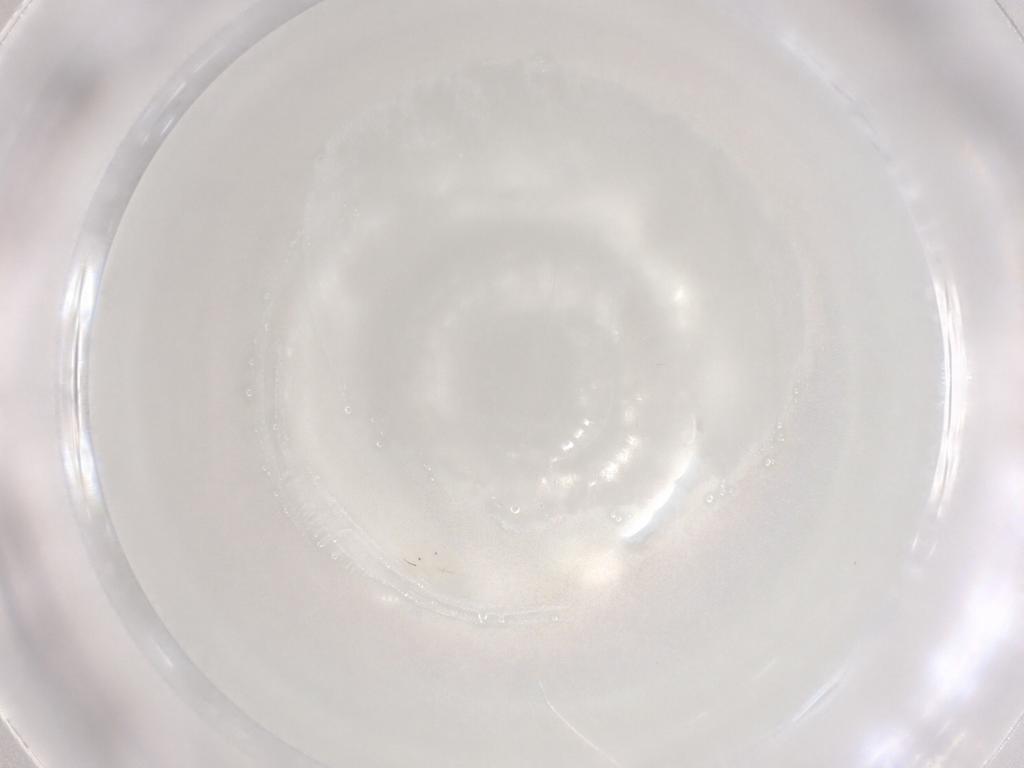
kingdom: Animalia
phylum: Arthropoda
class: Arachnida
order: Trombidiformes
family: Anystidae
